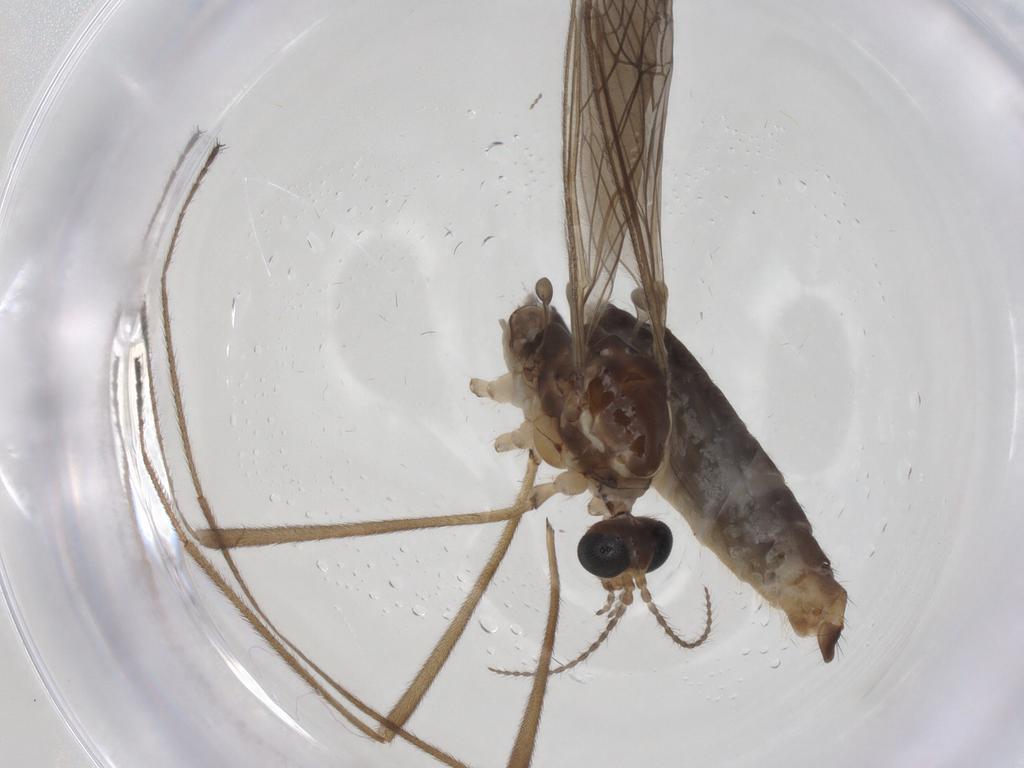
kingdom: Animalia
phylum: Arthropoda
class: Insecta
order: Diptera
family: Limoniidae
